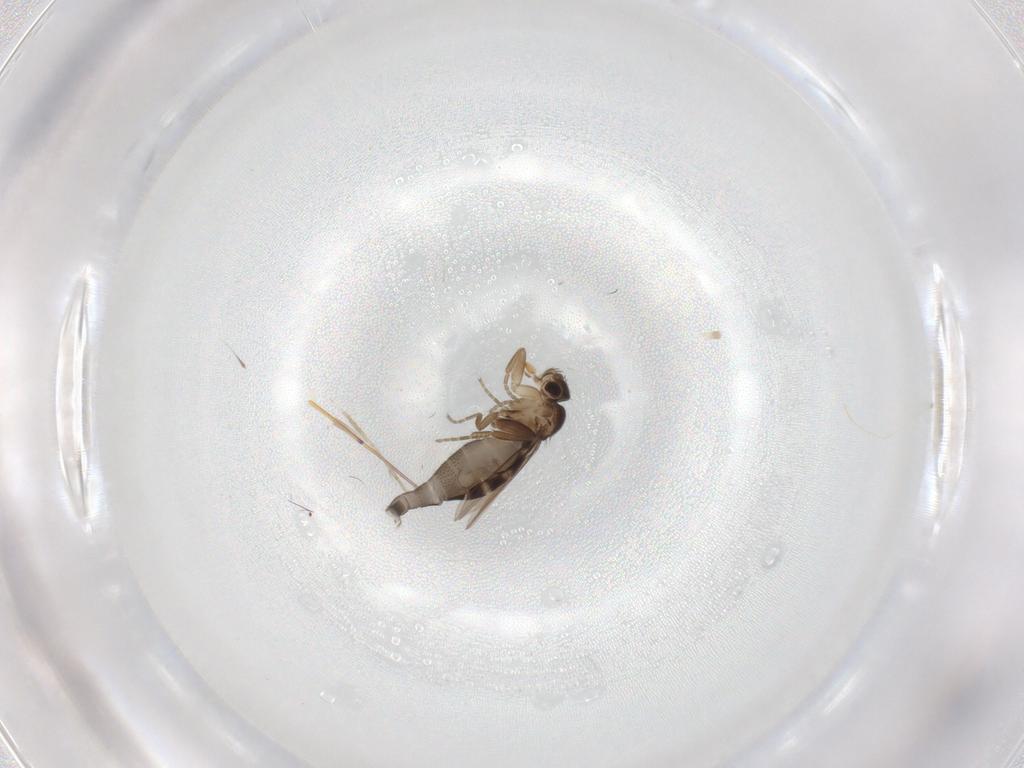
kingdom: Animalia
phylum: Arthropoda
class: Insecta
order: Diptera
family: Phoridae
